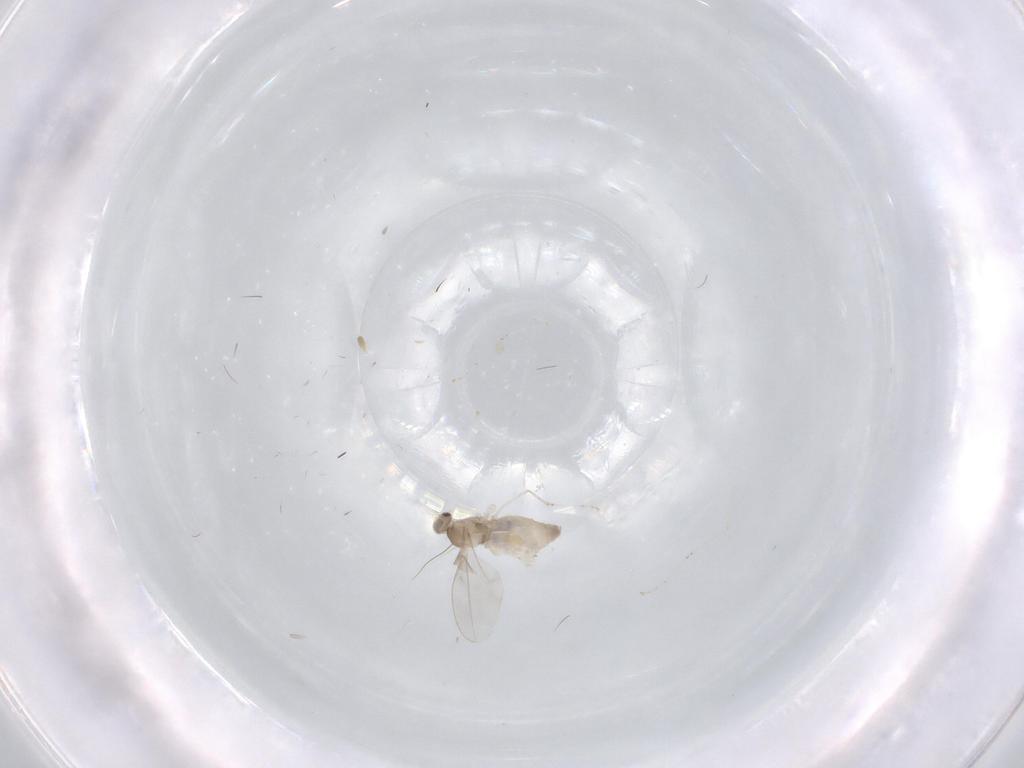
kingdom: Animalia
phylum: Arthropoda
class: Insecta
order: Diptera
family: Cecidomyiidae
